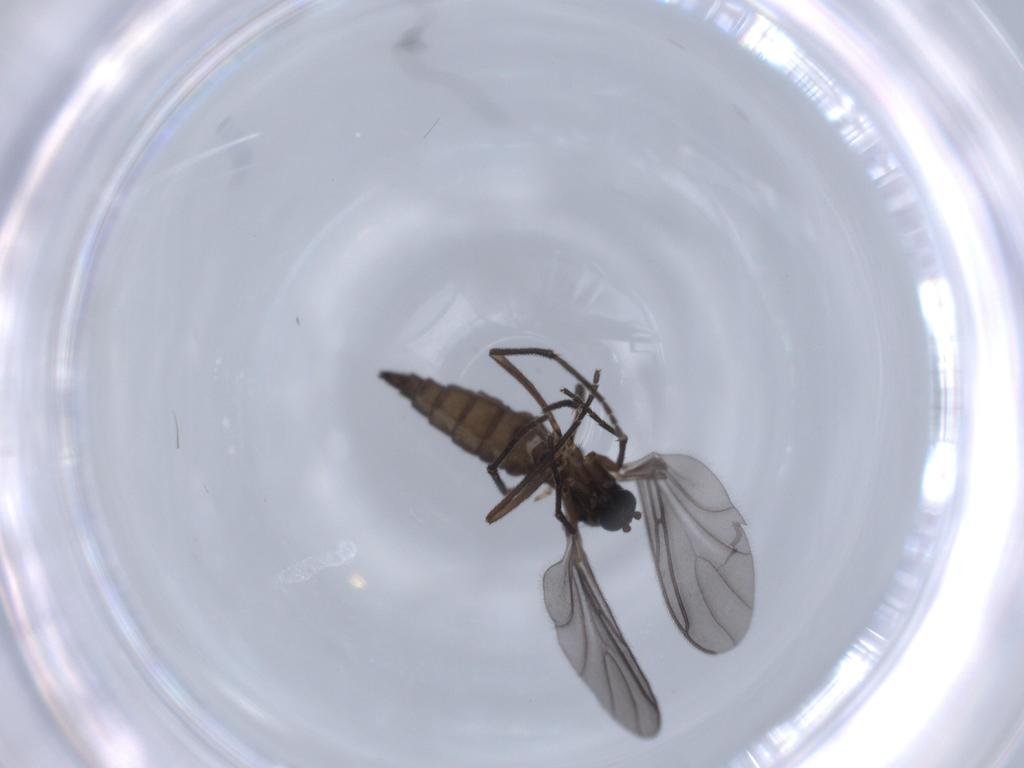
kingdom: Animalia
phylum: Arthropoda
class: Insecta
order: Diptera
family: Sciaridae
